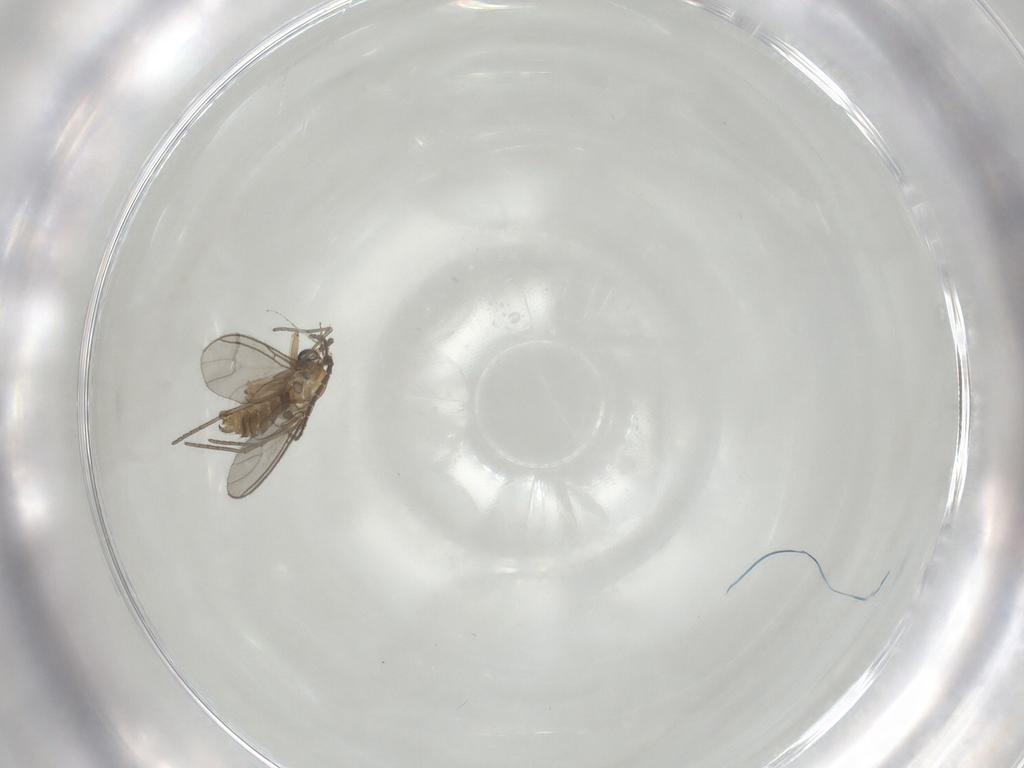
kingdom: Animalia
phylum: Arthropoda
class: Insecta
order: Diptera
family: Sciaridae
